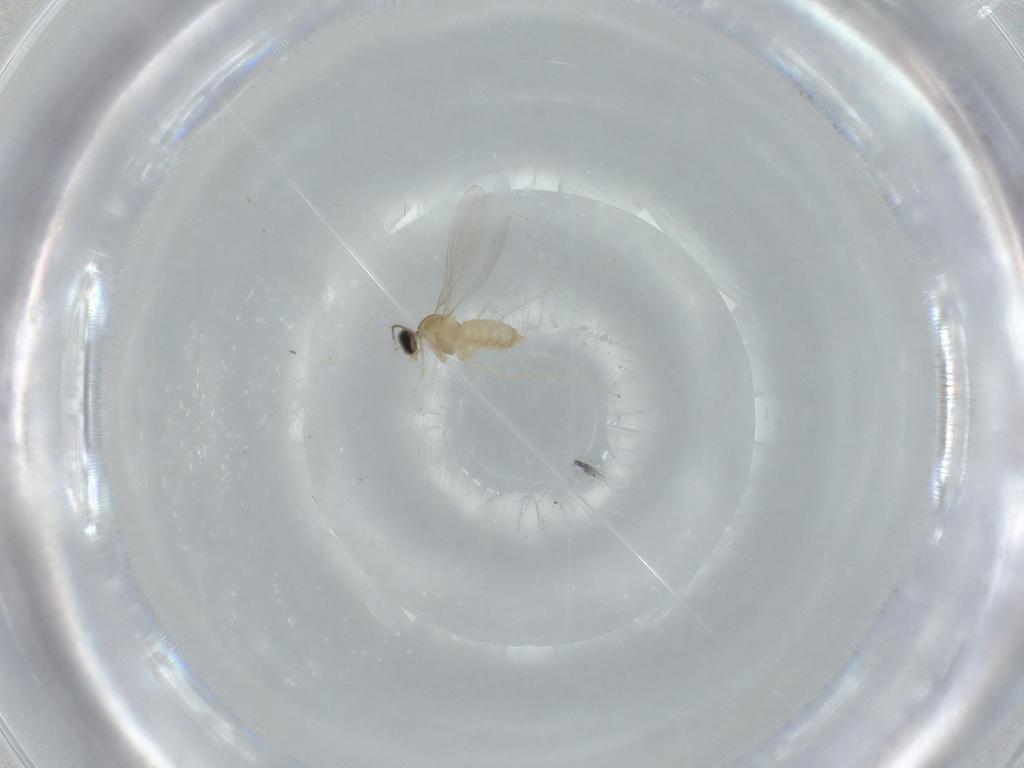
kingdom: Animalia
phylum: Arthropoda
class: Insecta
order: Diptera
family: Cecidomyiidae
